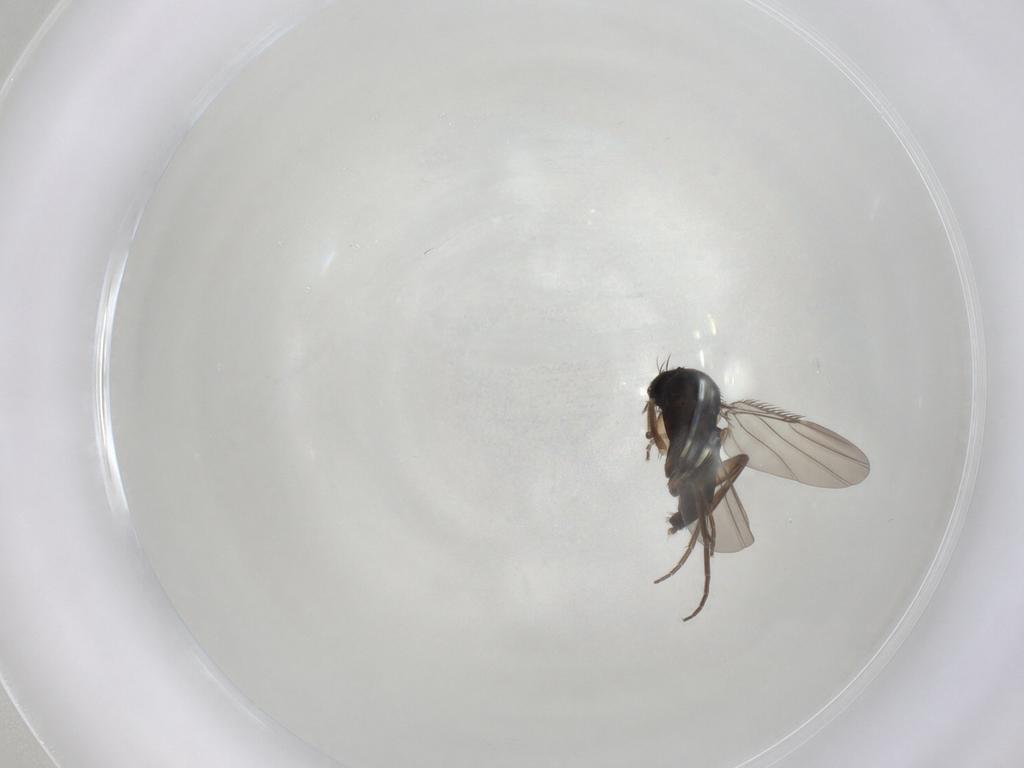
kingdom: Animalia
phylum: Arthropoda
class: Insecta
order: Diptera
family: Phoridae
